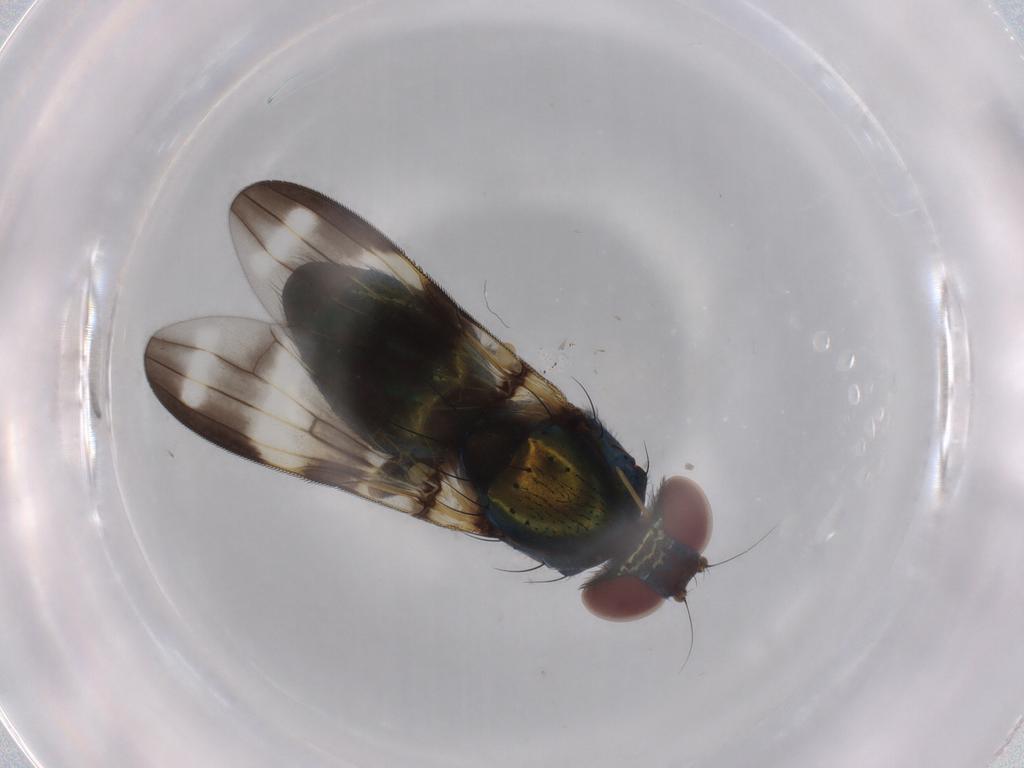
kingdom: Animalia
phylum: Arthropoda
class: Insecta
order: Diptera
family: Ulidiidae
